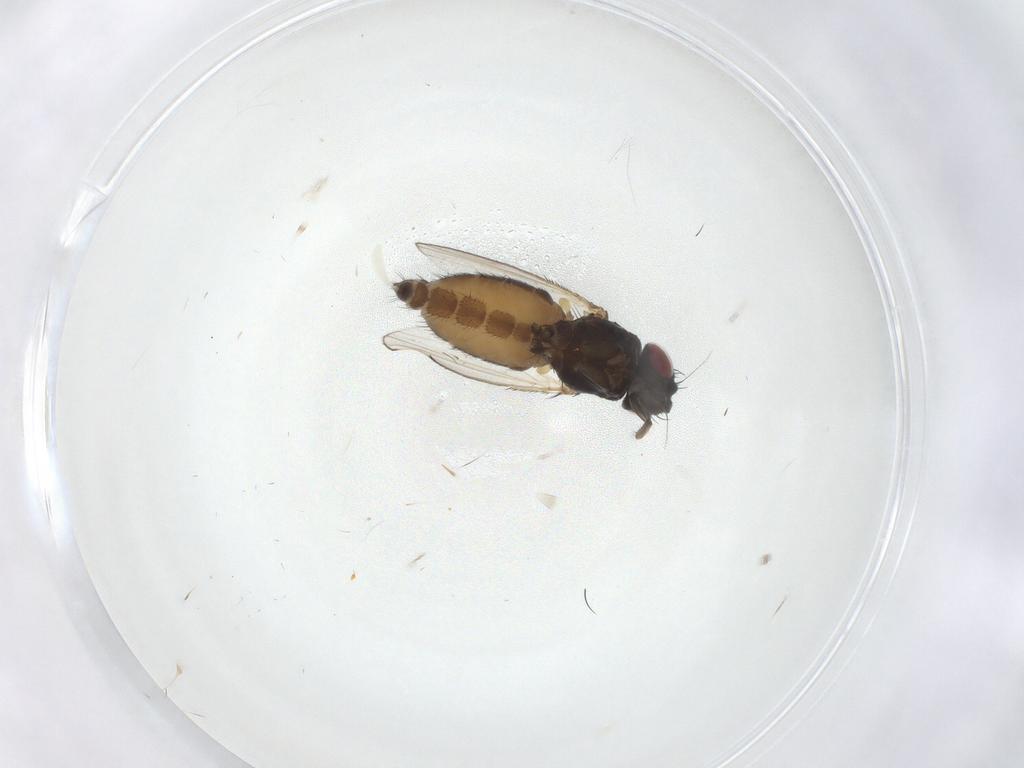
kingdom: Animalia
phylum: Arthropoda
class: Insecta
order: Diptera
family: Milichiidae
